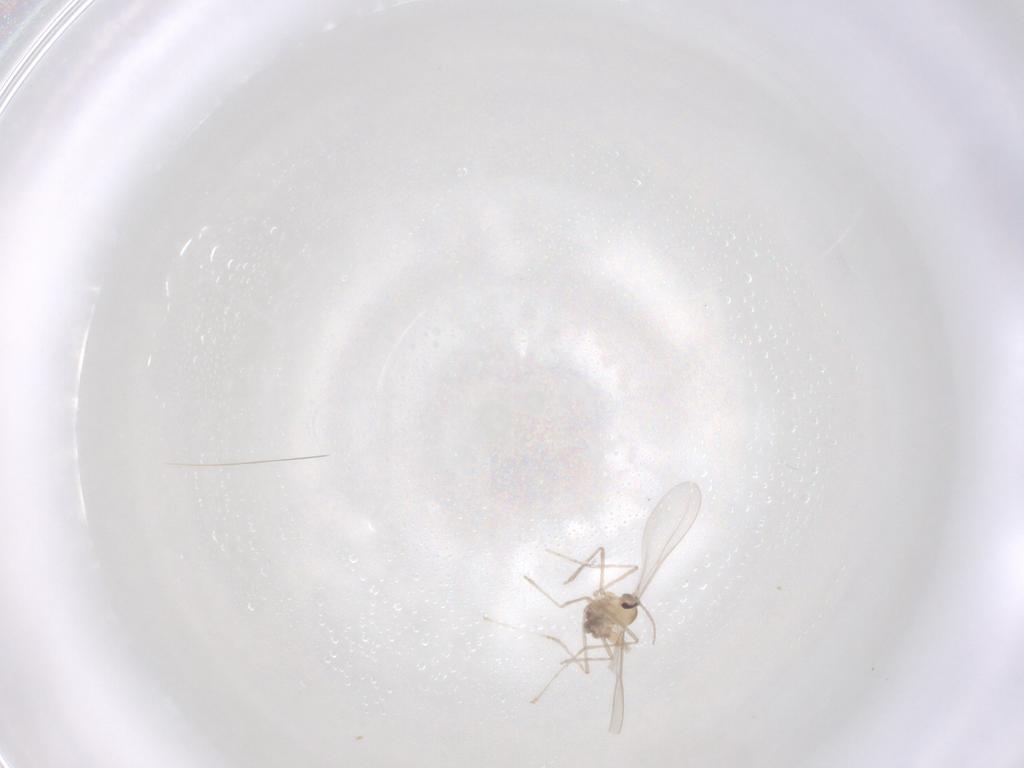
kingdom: Animalia
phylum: Arthropoda
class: Insecta
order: Diptera
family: Cecidomyiidae
